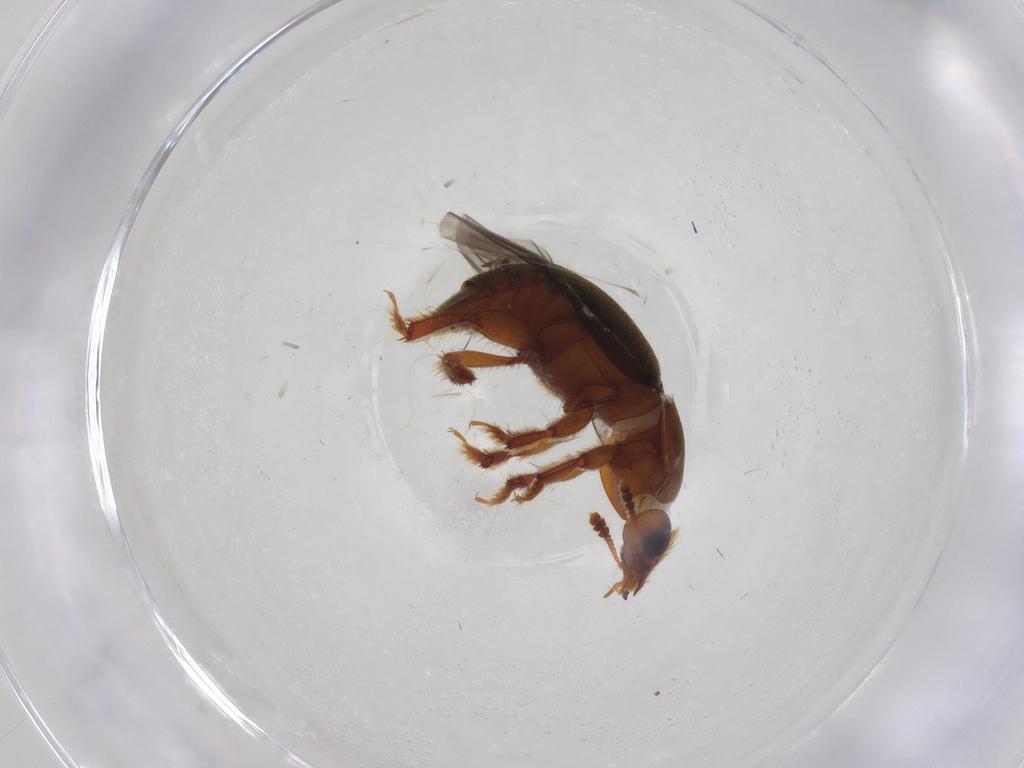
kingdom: Animalia
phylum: Arthropoda
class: Insecta
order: Coleoptera
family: Nitidulidae
